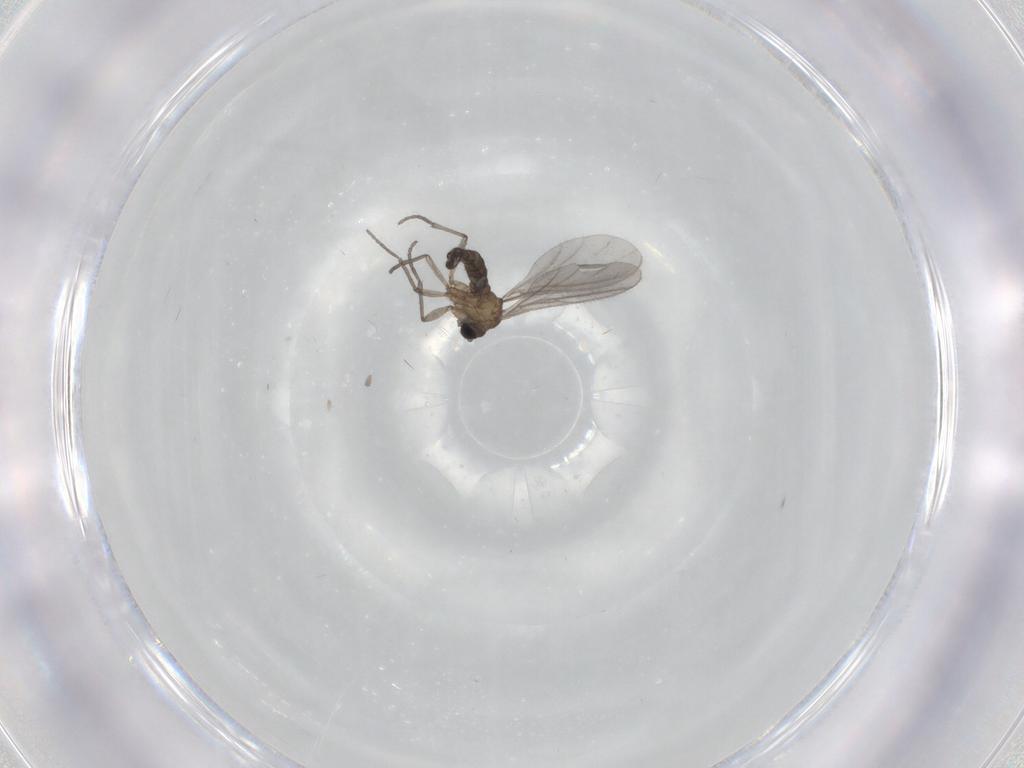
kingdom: Animalia
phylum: Arthropoda
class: Insecta
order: Diptera
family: Sciaridae
